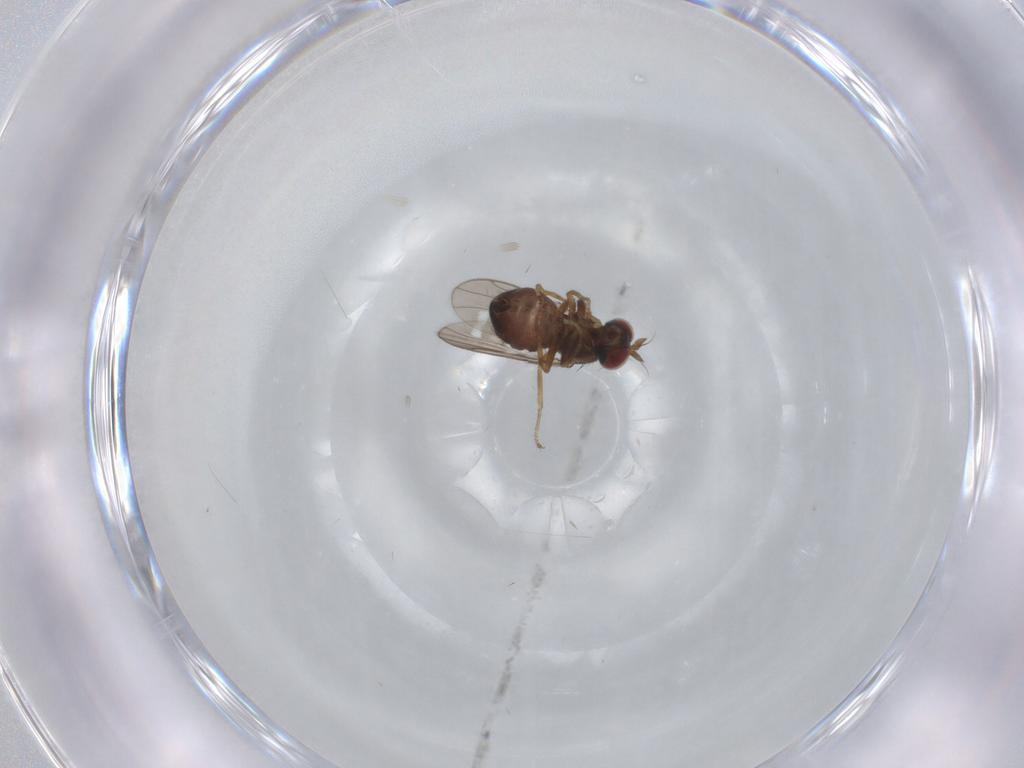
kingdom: Animalia
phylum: Arthropoda
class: Insecta
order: Diptera
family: Ephydridae
